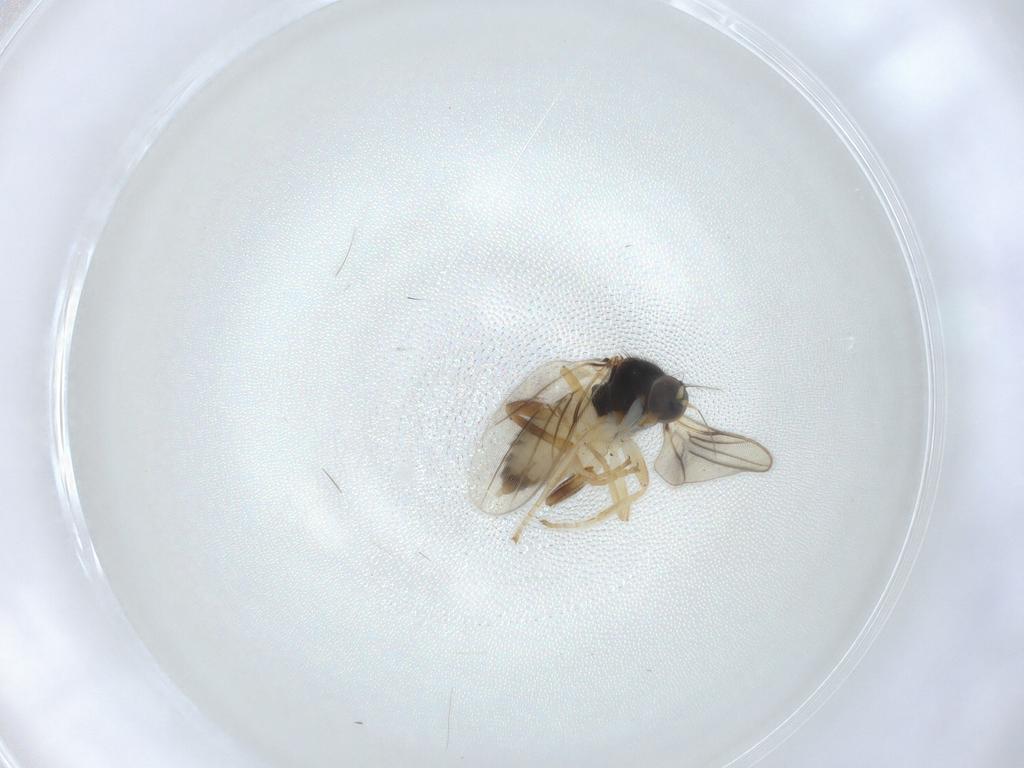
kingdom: Animalia
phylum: Arthropoda
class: Insecta
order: Diptera
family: Hybotidae
